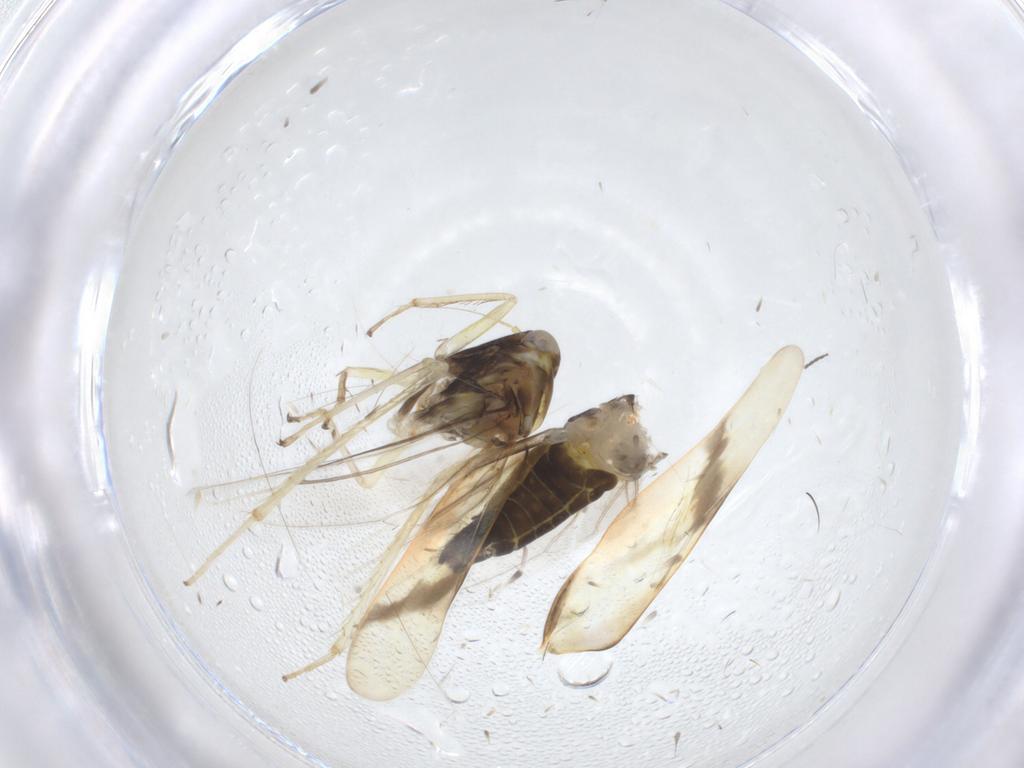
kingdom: Animalia
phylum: Arthropoda
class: Insecta
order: Hemiptera
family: Cicadellidae
